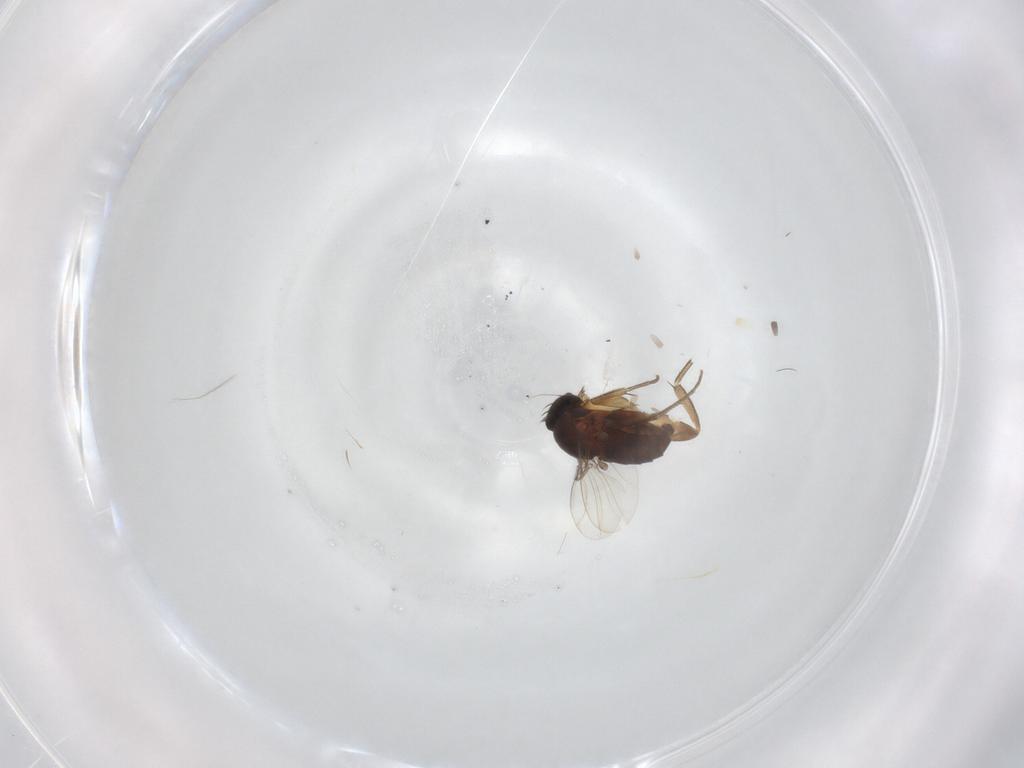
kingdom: Animalia
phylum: Arthropoda
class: Insecta
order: Diptera
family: Phoridae
